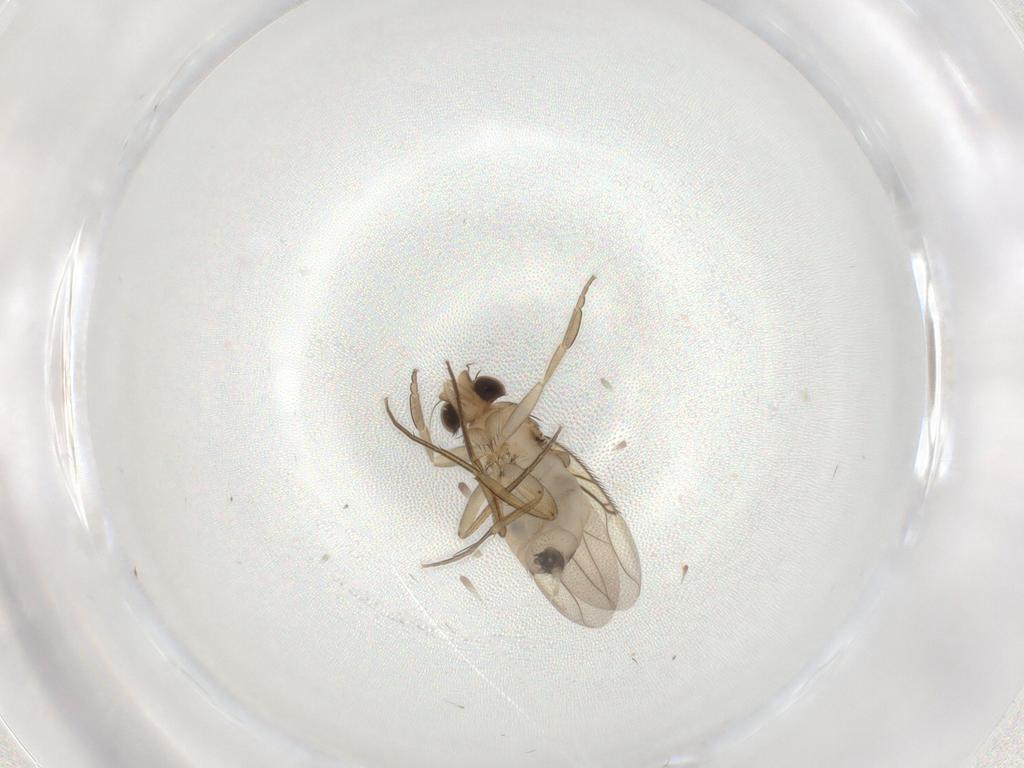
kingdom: Animalia
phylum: Arthropoda
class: Insecta
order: Diptera
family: Phoridae
